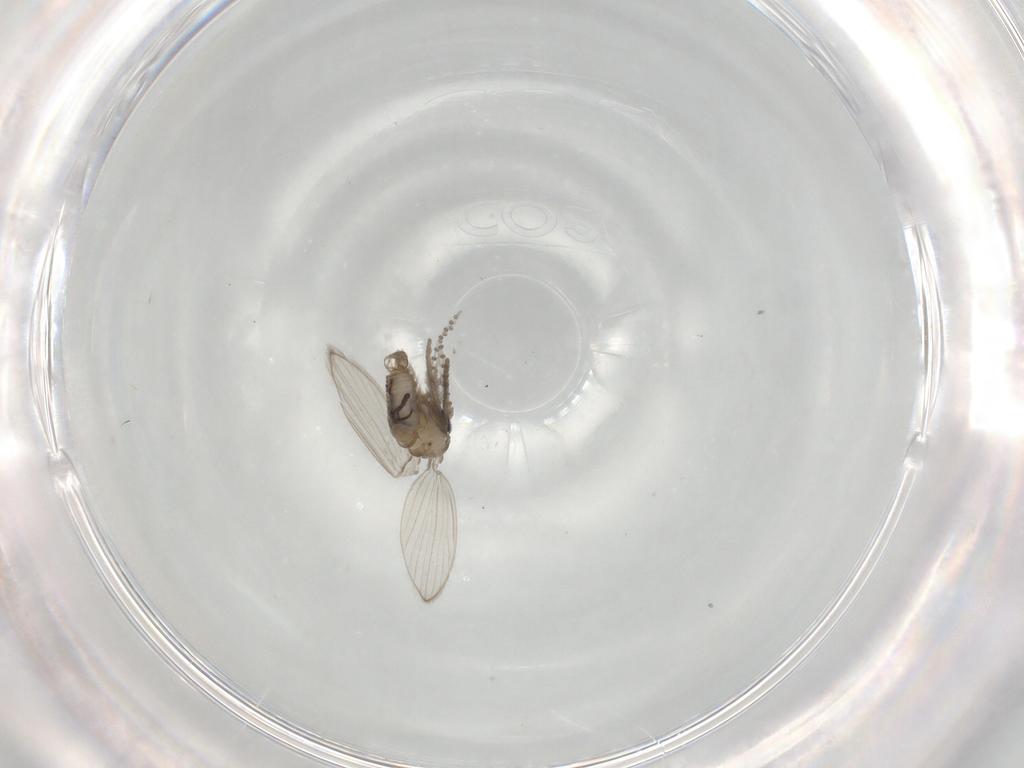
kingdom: Animalia
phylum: Arthropoda
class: Insecta
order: Diptera
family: Psychodidae
